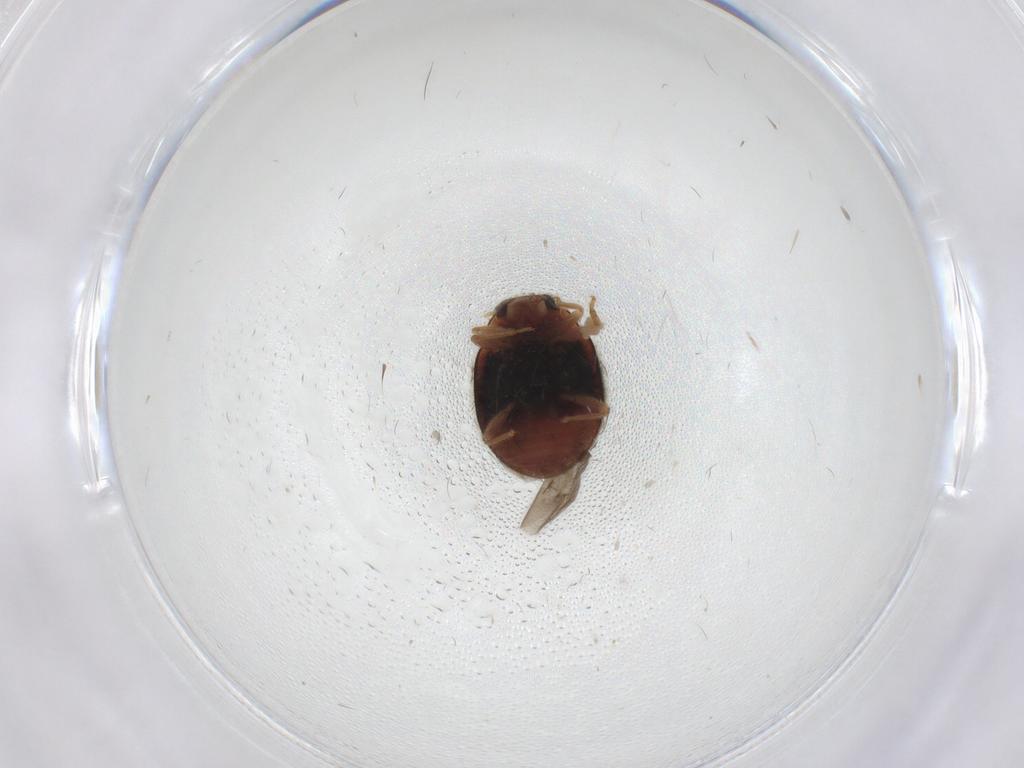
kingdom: Animalia
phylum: Arthropoda
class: Insecta
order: Coleoptera
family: Coccinellidae
